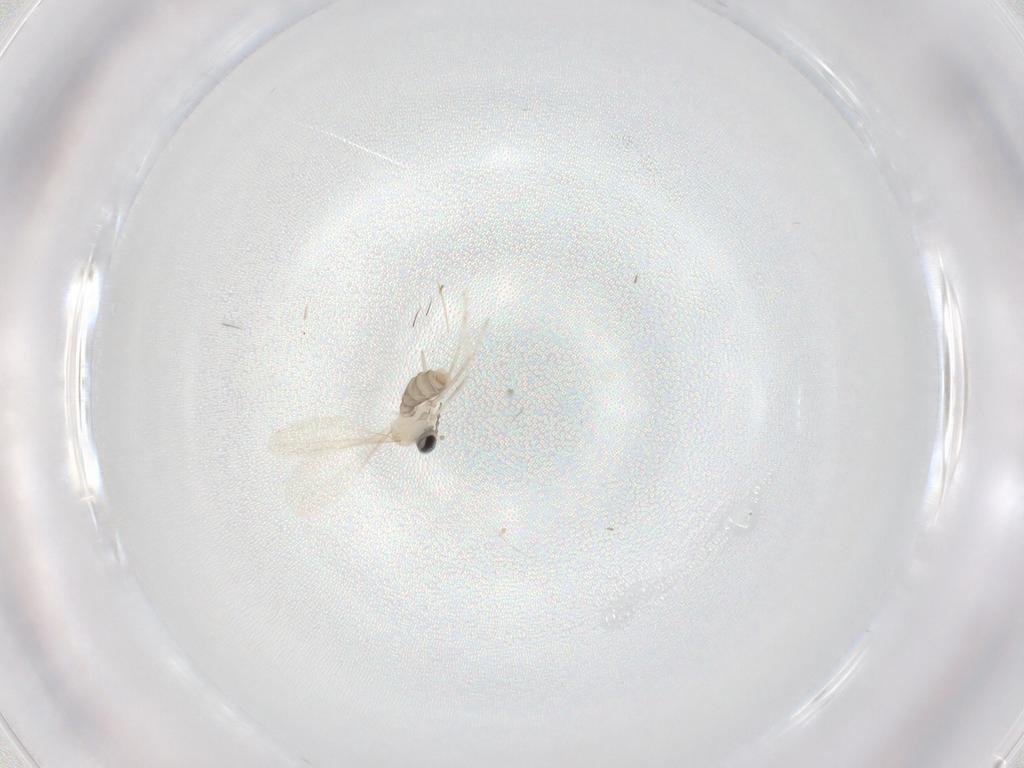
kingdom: Animalia
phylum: Arthropoda
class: Insecta
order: Diptera
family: Cecidomyiidae
